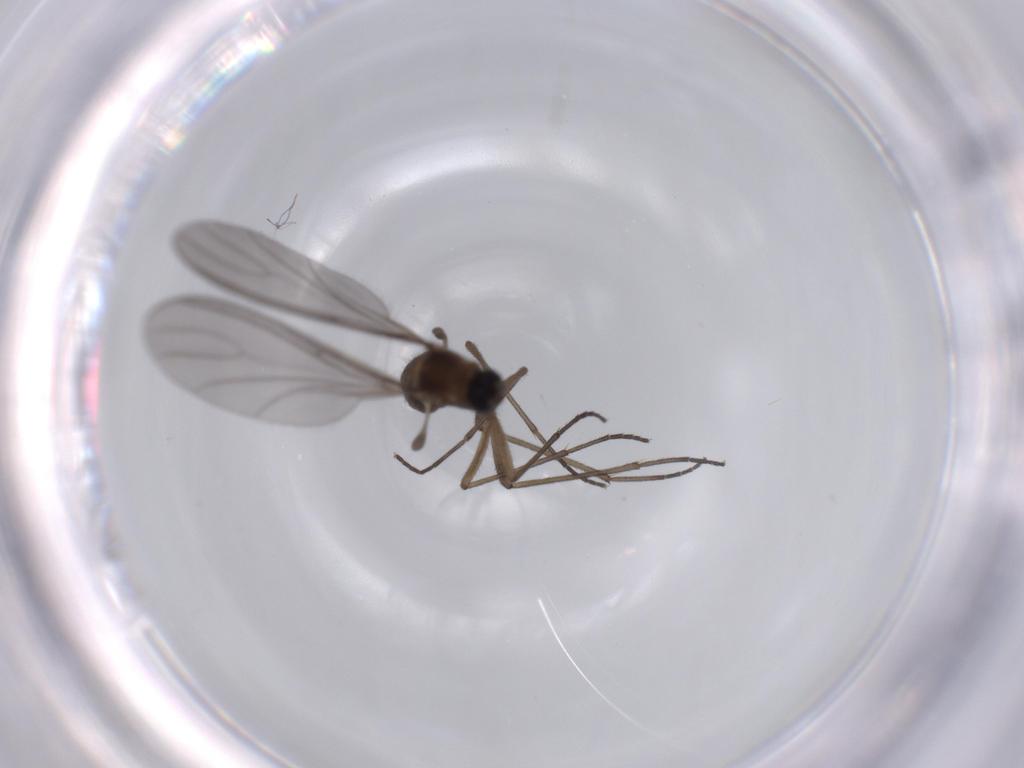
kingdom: Animalia
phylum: Arthropoda
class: Insecta
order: Diptera
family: Sciaridae
